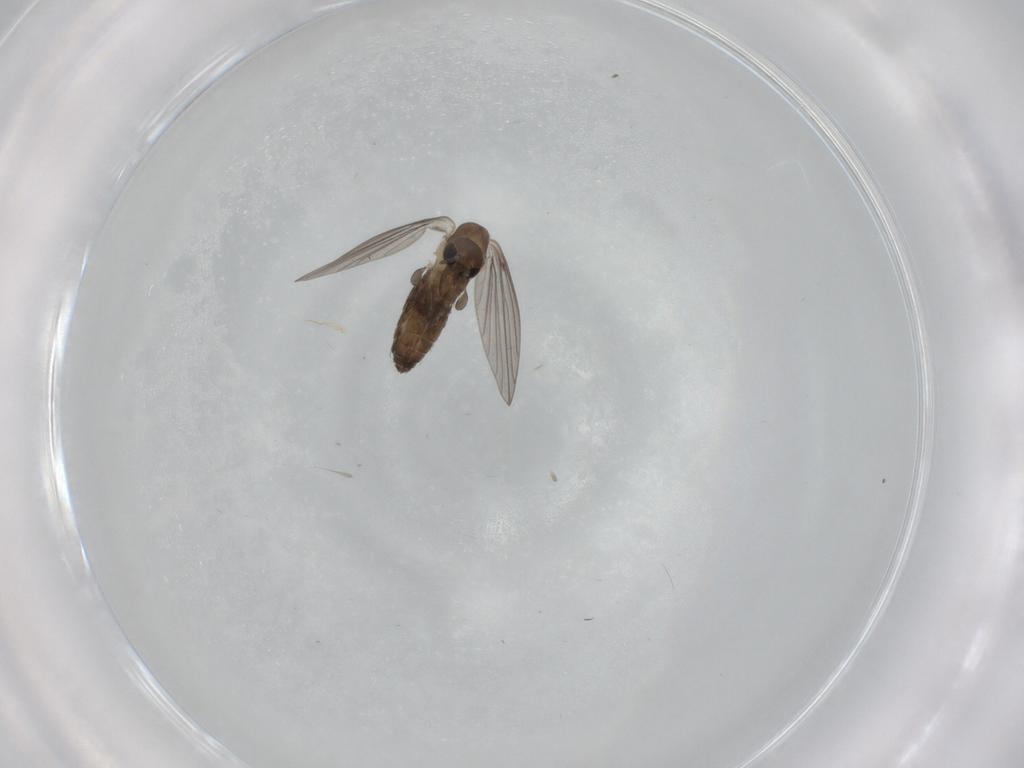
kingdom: Animalia
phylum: Arthropoda
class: Insecta
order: Diptera
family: Psychodidae
